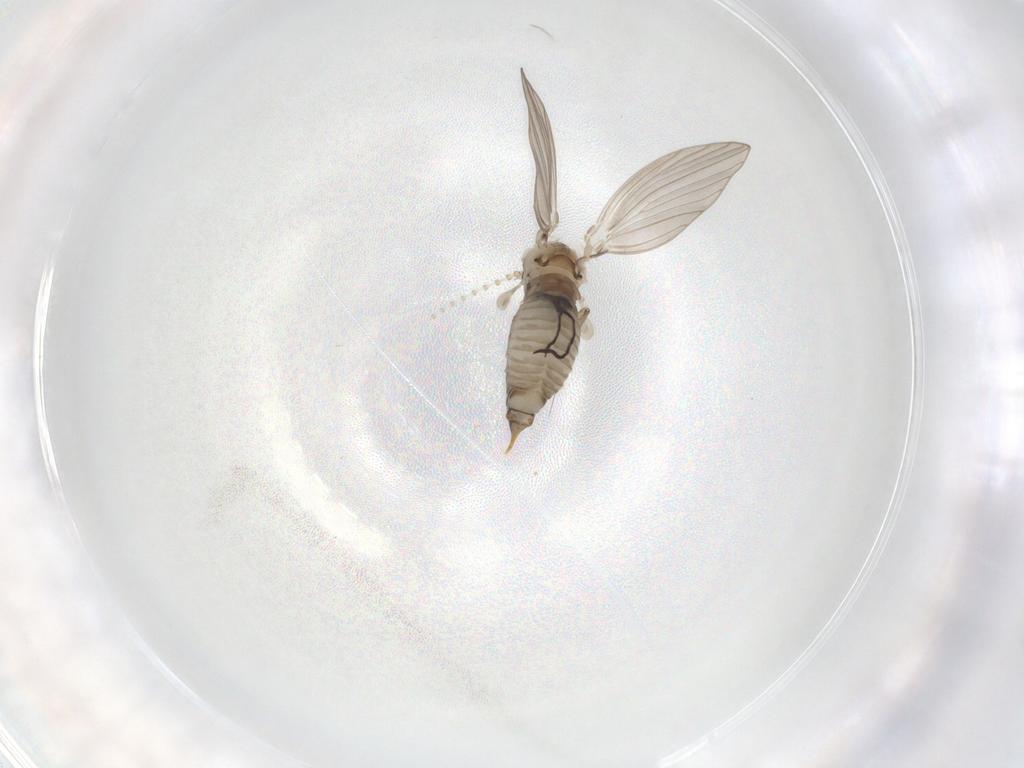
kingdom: Animalia
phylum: Arthropoda
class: Insecta
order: Diptera
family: Psychodidae
